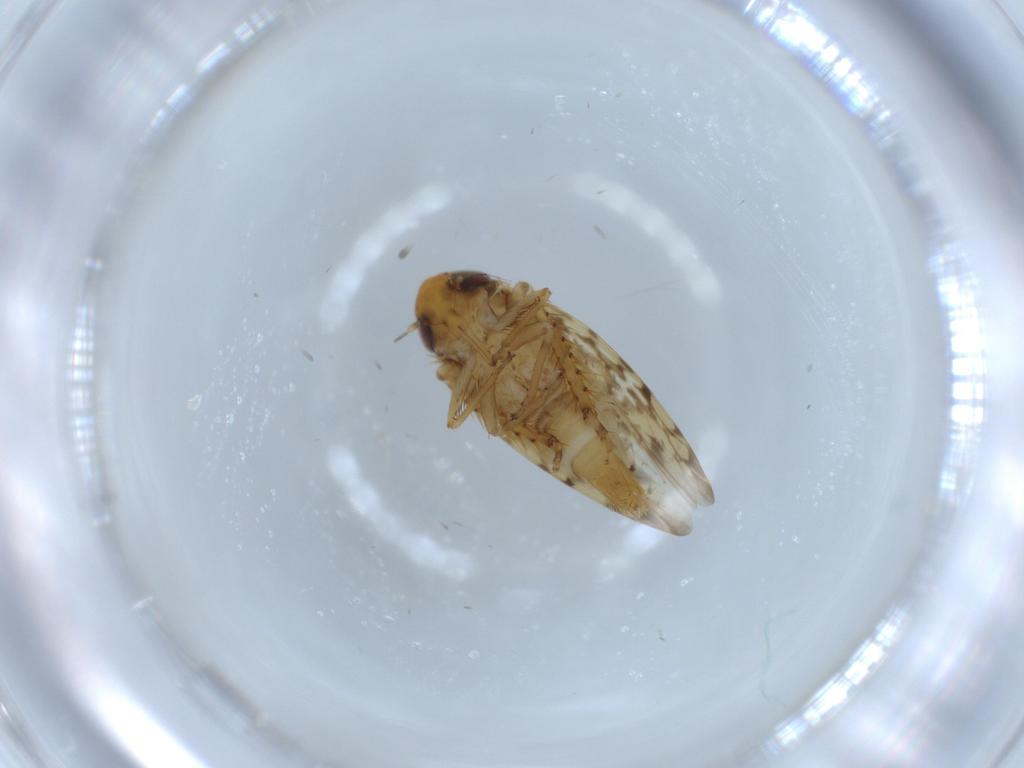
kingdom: Animalia
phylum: Arthropoda
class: Insecta
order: Hemiptera
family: Cicadellidae
